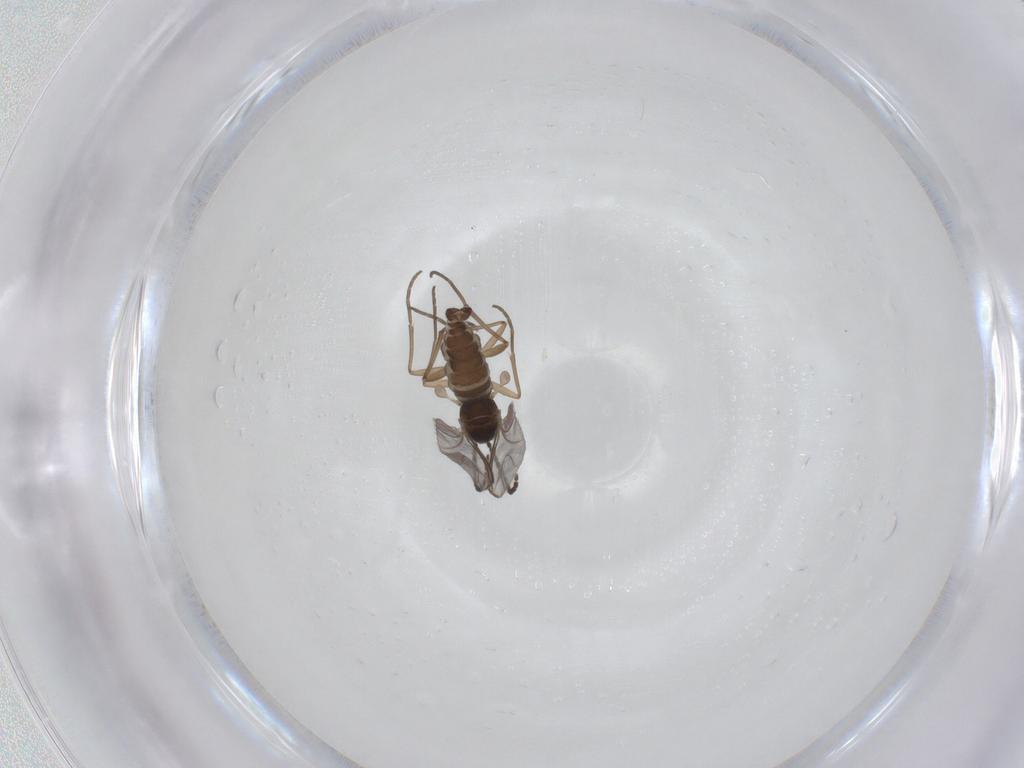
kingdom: Animalia
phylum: Arthropoda
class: Insecta
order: Diptera
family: Sciaridae
